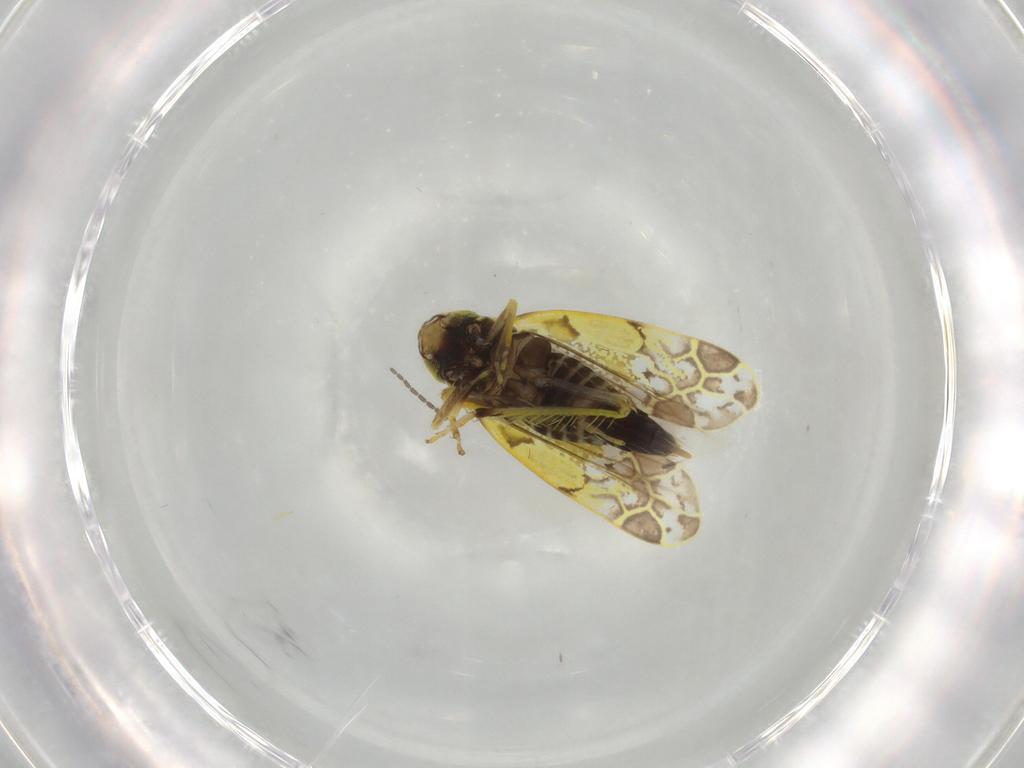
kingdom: Animalia
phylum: Arthropoda
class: Insecta
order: Hemiptera
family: Cicadellidae
